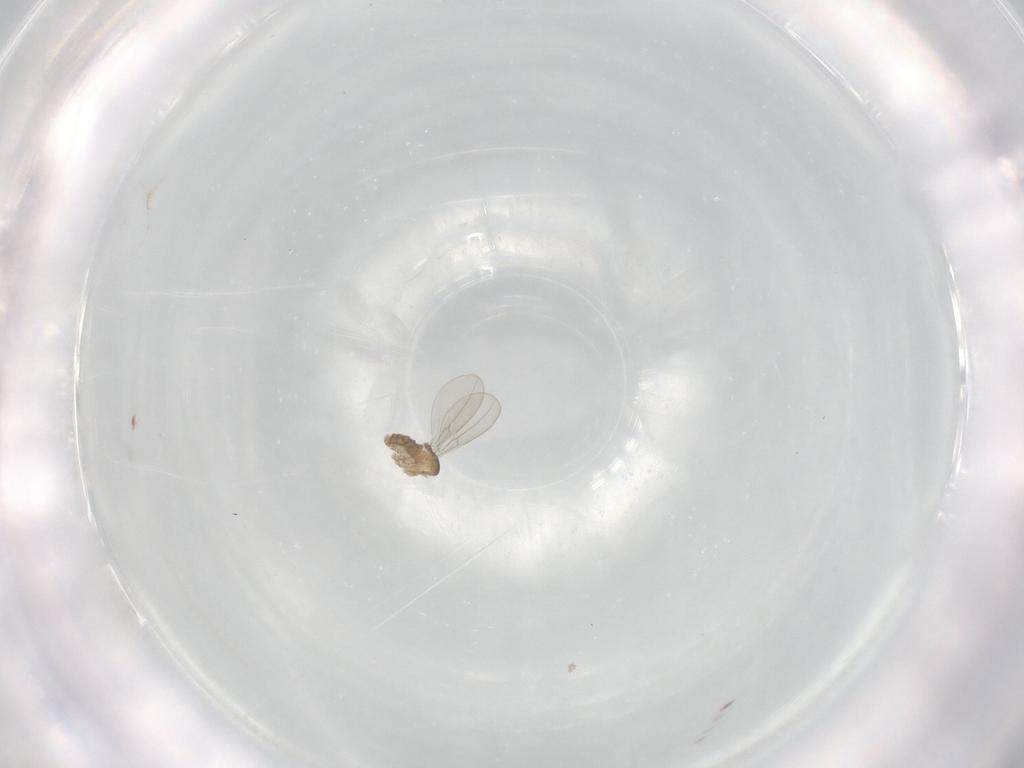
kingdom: Animalia
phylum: Arthropoda
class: Insecta
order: Diptera
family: Cecidomyiidae
